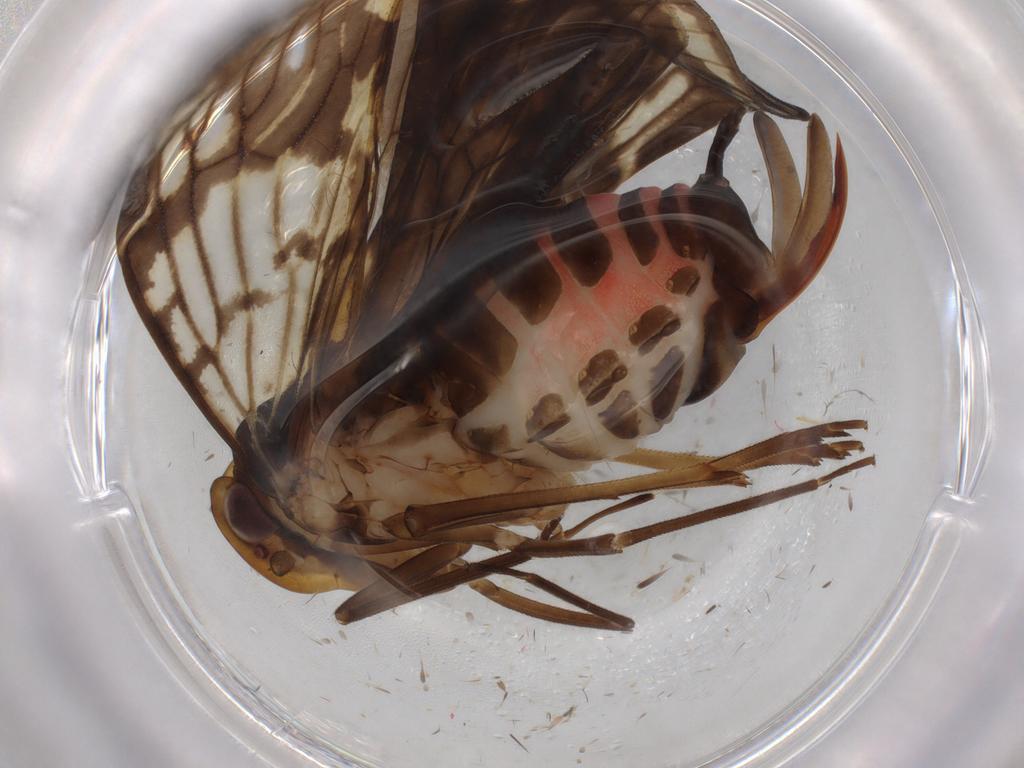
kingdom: Animalia
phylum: Arthropoda
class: Insecta
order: Hemiptera
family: Cixiidae
